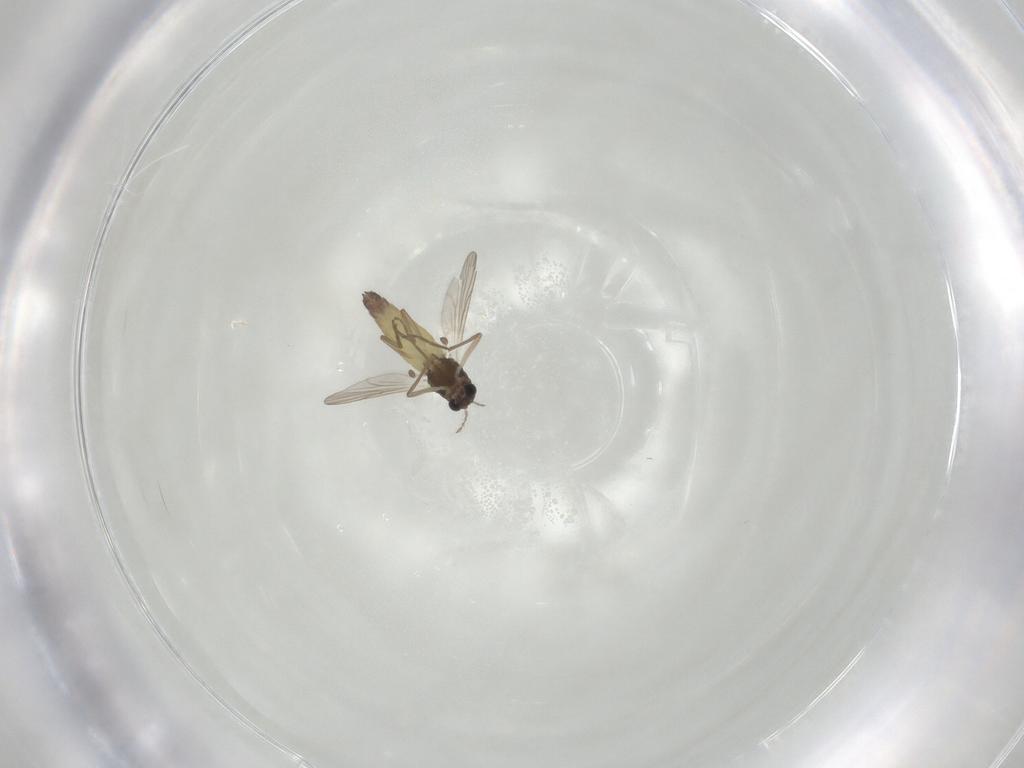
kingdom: Animalia
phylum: Arthropoda
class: Insecta
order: Diptera
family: Chironomidae
